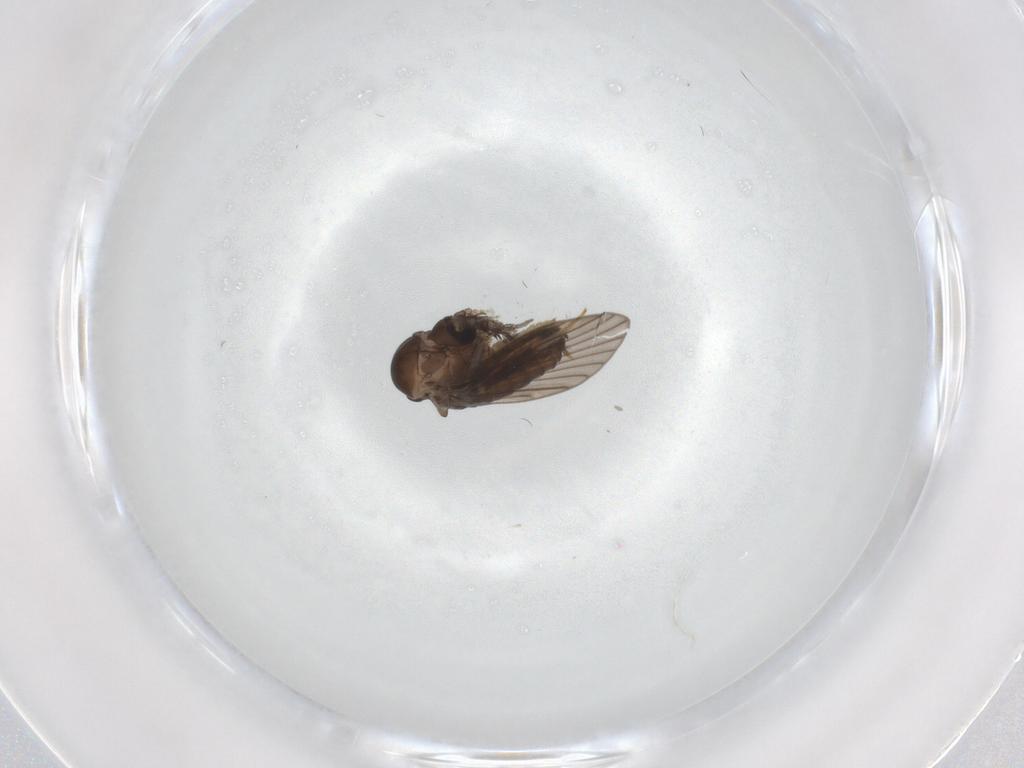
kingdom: Animalia
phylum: Arthropoda
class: Insecta
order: Diptera
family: Psychodidae
